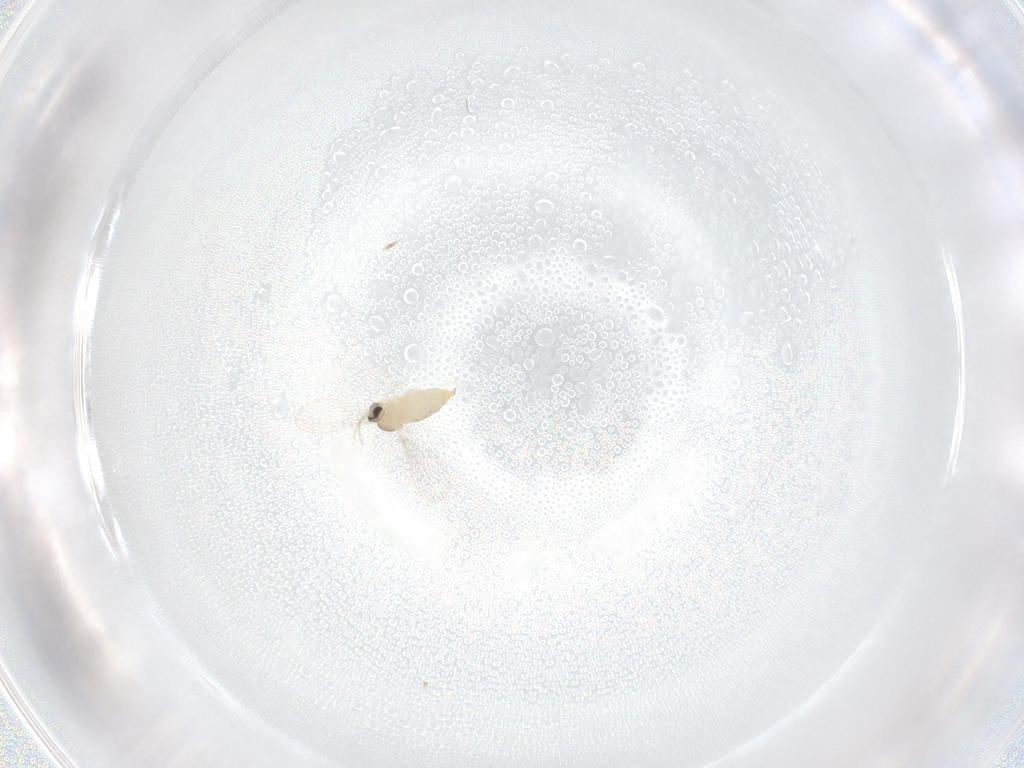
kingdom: Animalia
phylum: Arthropoda
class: Insecta
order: Diptera
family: Cecidomyiidae
